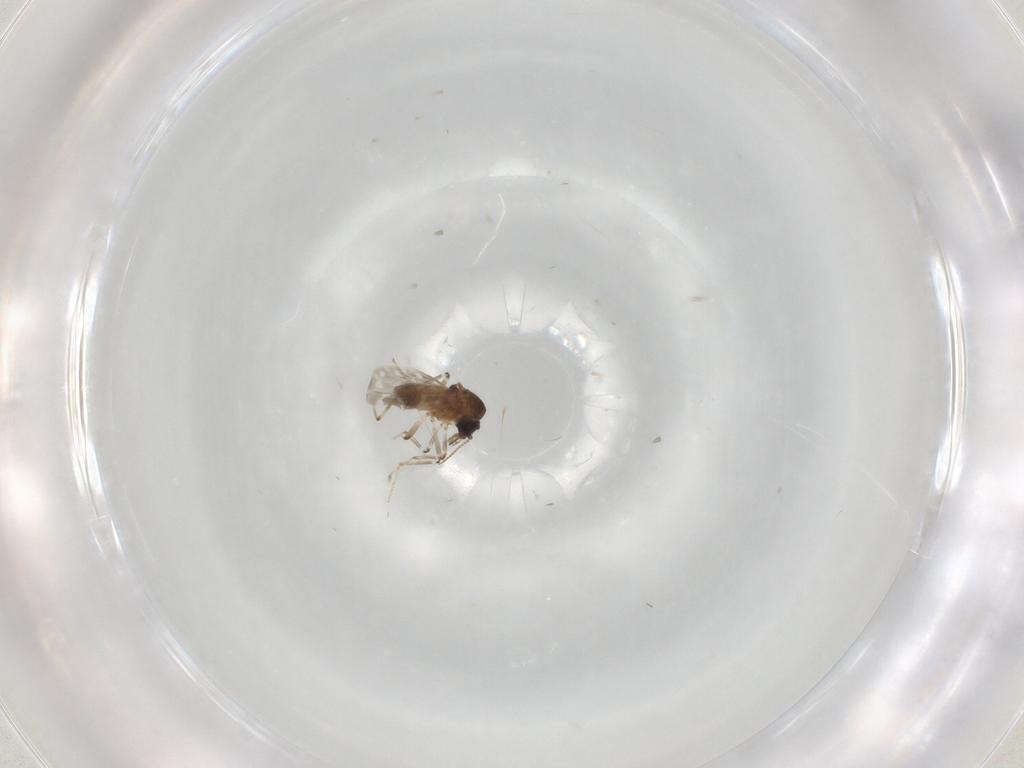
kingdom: Animalia
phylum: Arthropoda
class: Insecta
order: Diptera
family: Ceratopogonidae
